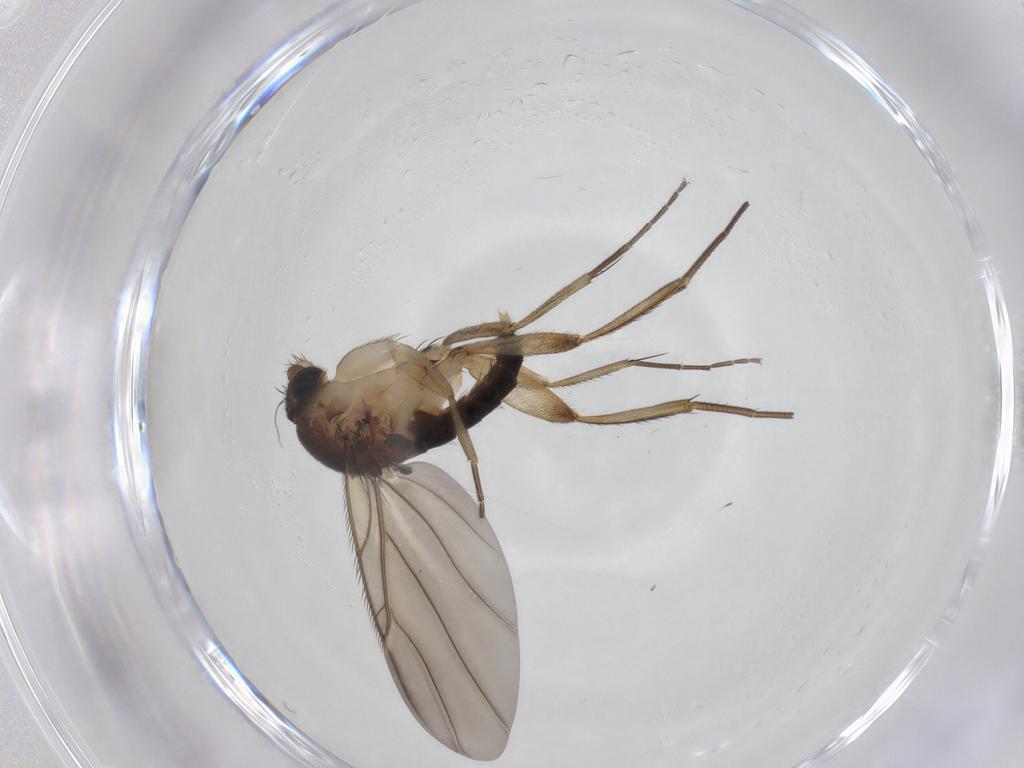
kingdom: Animalia
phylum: Arthropoda
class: Insecta
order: Diptera
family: Phoridae
